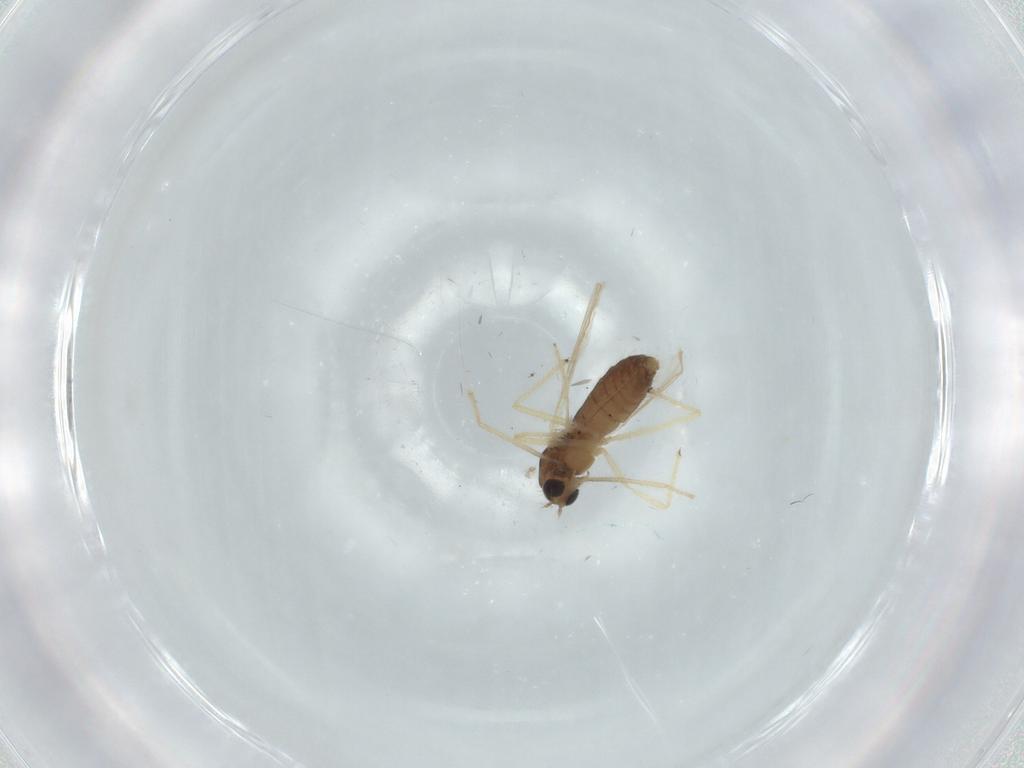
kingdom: Animalia
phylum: Arthropoda
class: Insecta
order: Diptera
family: Chironomidae
